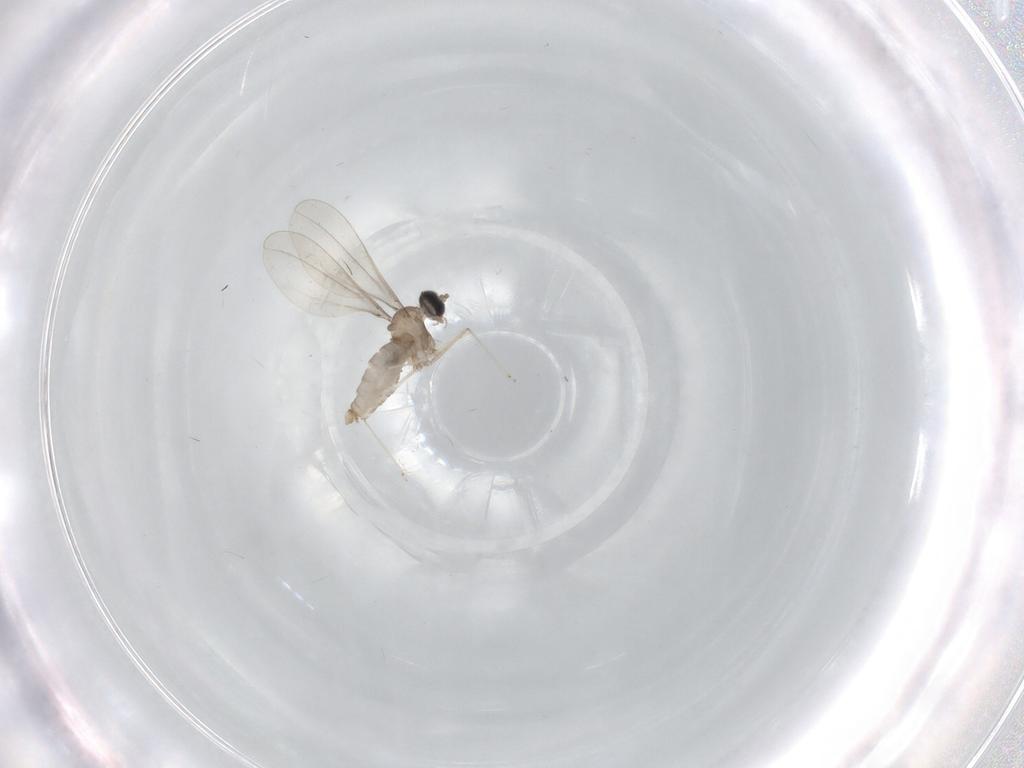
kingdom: Animalia
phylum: Arthropoda
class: Insecta
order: Diptera
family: Cecidomyiidae
